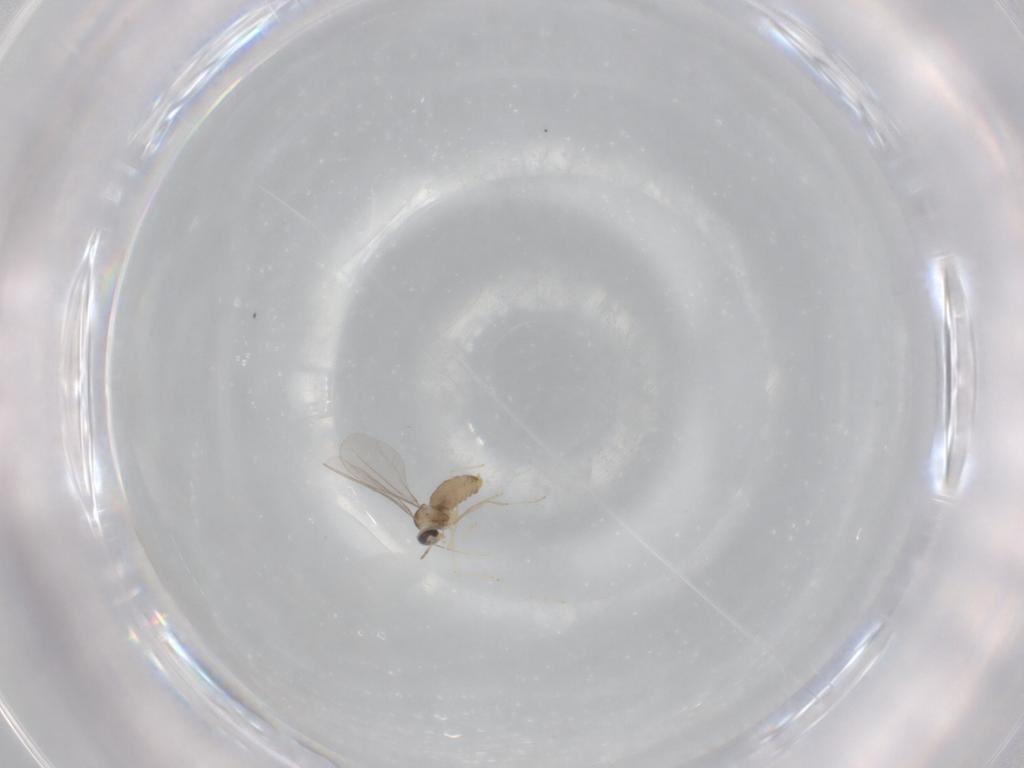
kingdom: Animalia
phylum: Arthropoda
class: Insecta
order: Diptera
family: Cecidomyiidae
